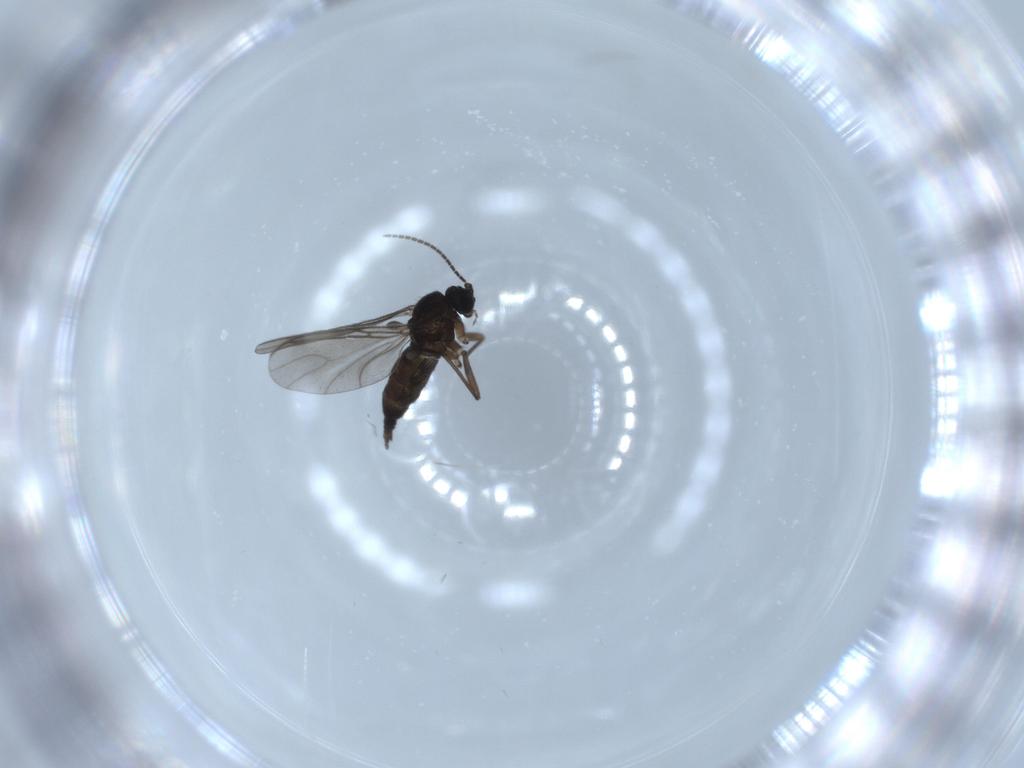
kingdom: Animalia
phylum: Arthropoda
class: Insecta
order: Diptera
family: Sciaridae
